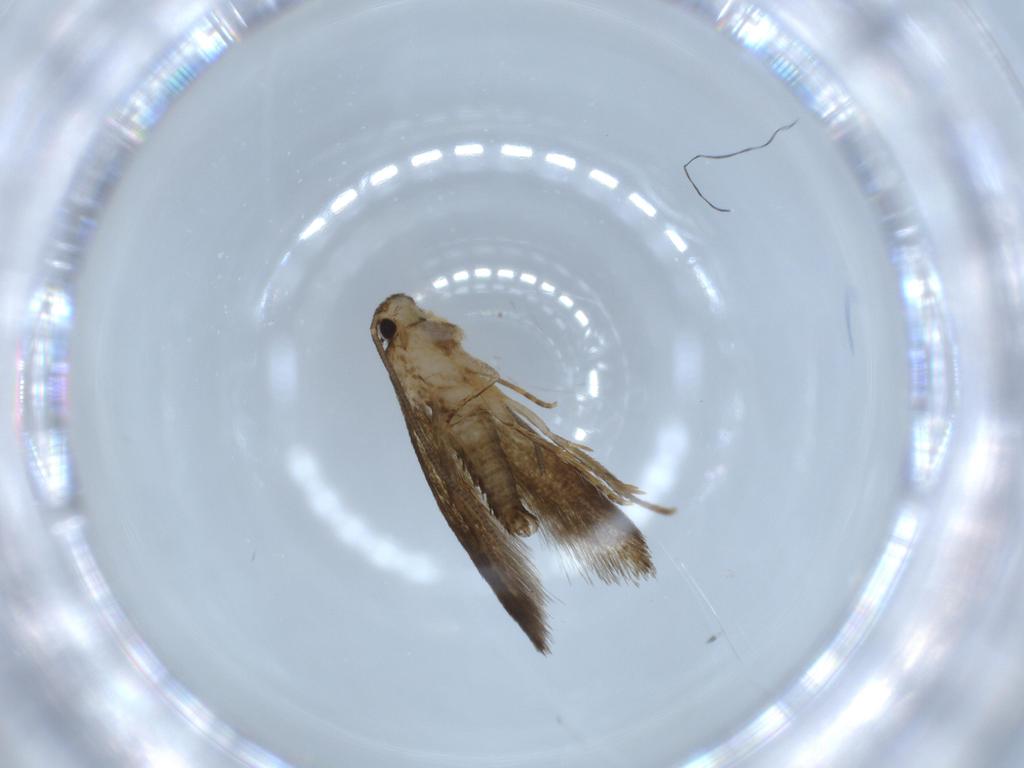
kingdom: Animalia
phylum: Arthropoda
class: Insecta
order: Lepidoptera
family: Tineidae
